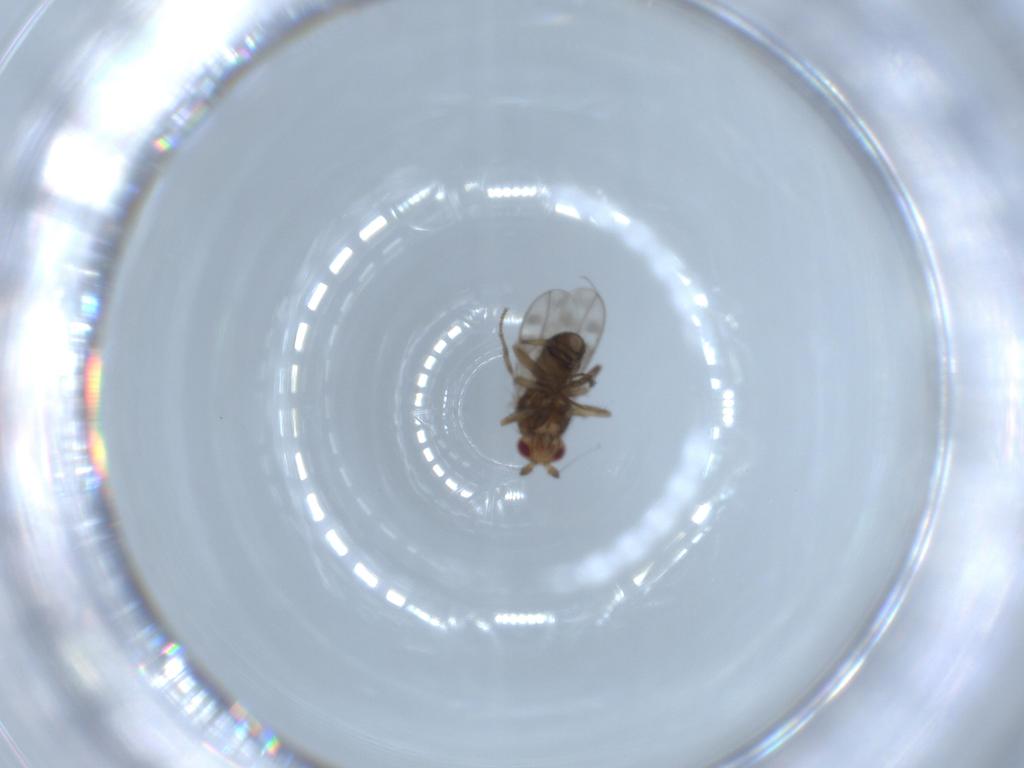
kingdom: Animalia
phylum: Arthropoda
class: Insecta
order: Diptera
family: Sphaeroceridae
